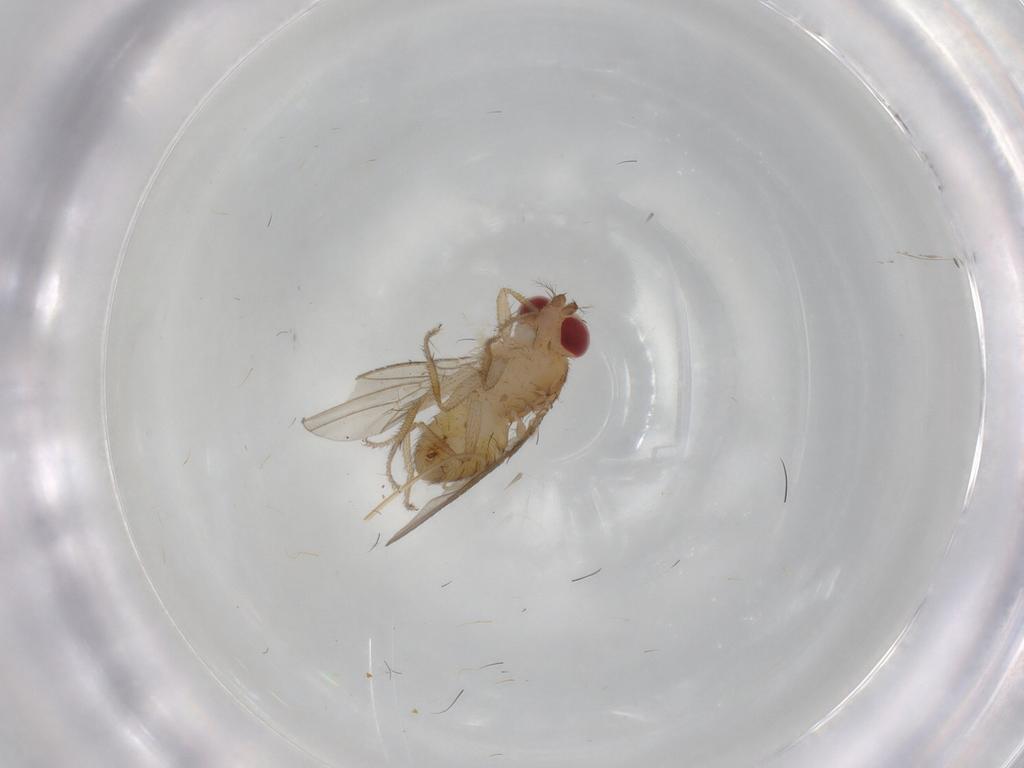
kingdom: Animalia
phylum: Arthropoda
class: Insecta
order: Diptera
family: Drosophilidae
